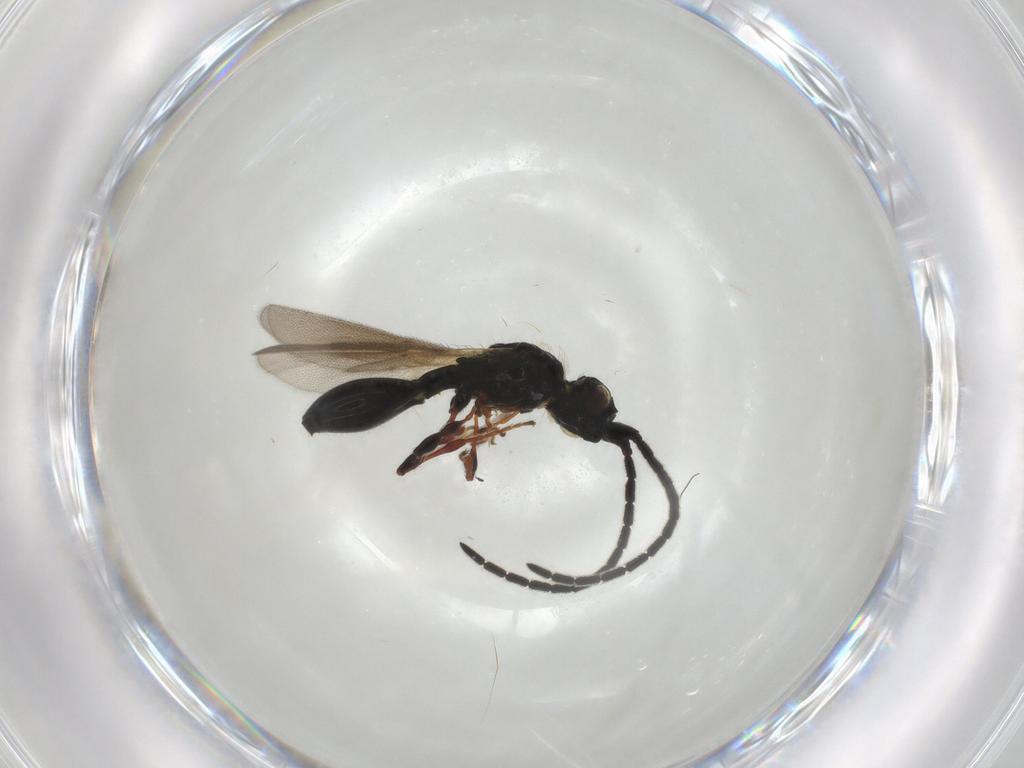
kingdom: Animalia
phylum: Arthropoda
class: Insecta
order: Hymenoptera
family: Diapriidae
